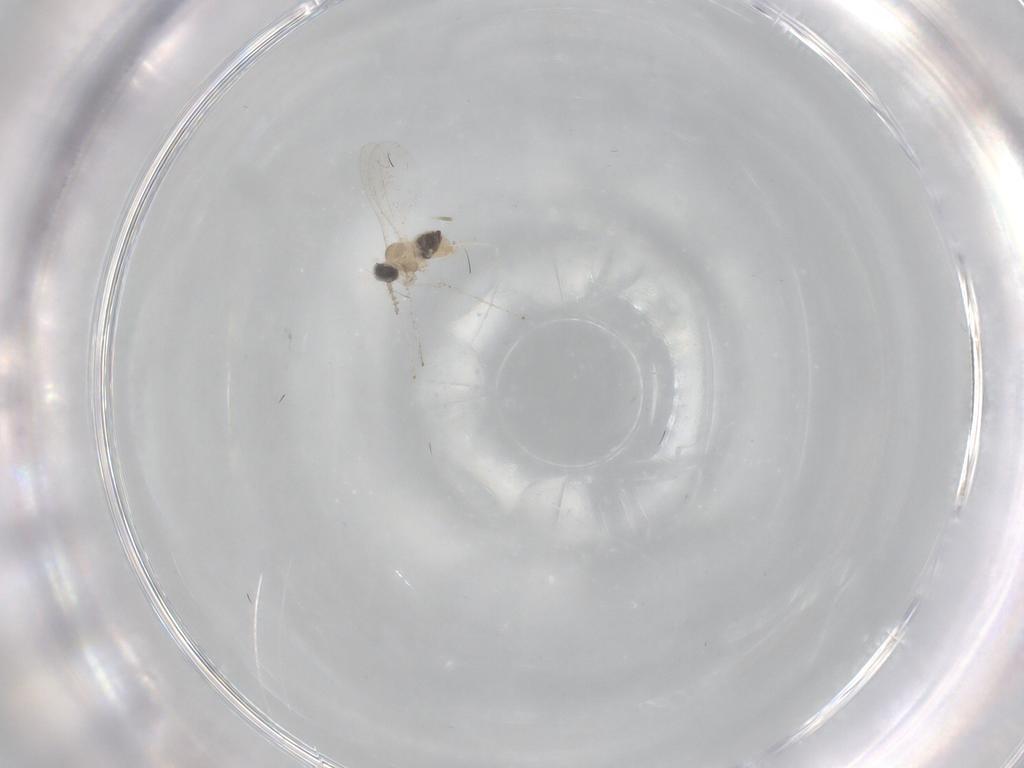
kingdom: Animalia
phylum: Arthropoda
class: Insecta
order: Diptera
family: Cecidomyiidae
